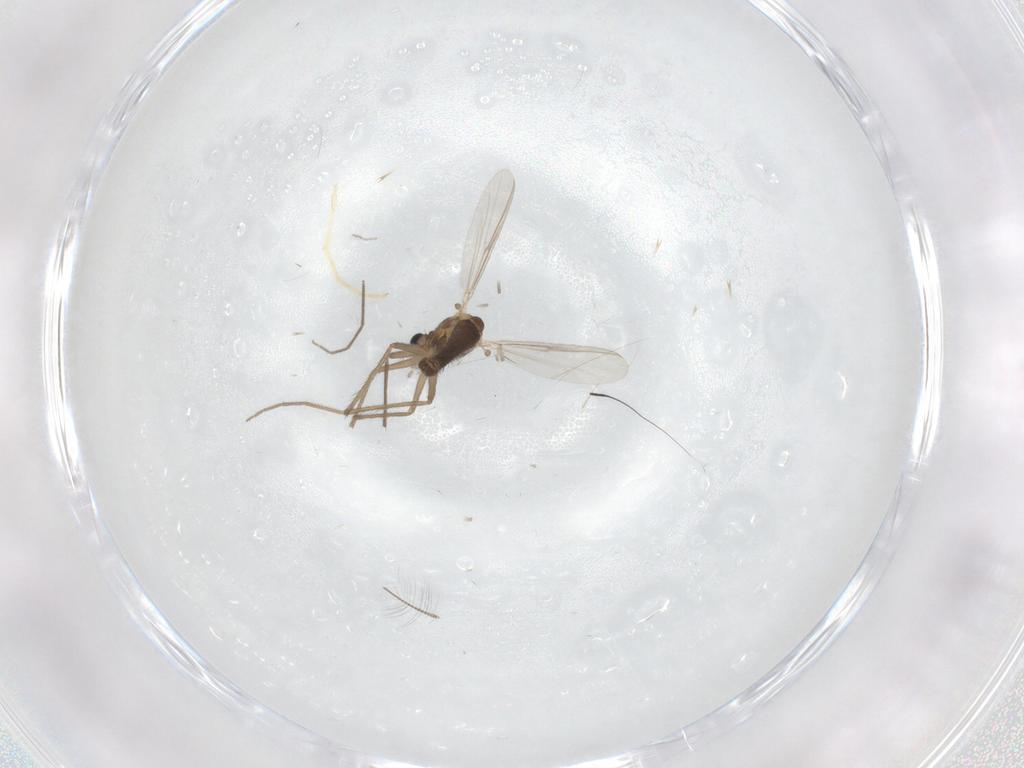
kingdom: Animalia
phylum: Arthropoda
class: Insecta
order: Diptera
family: Chironomidae
